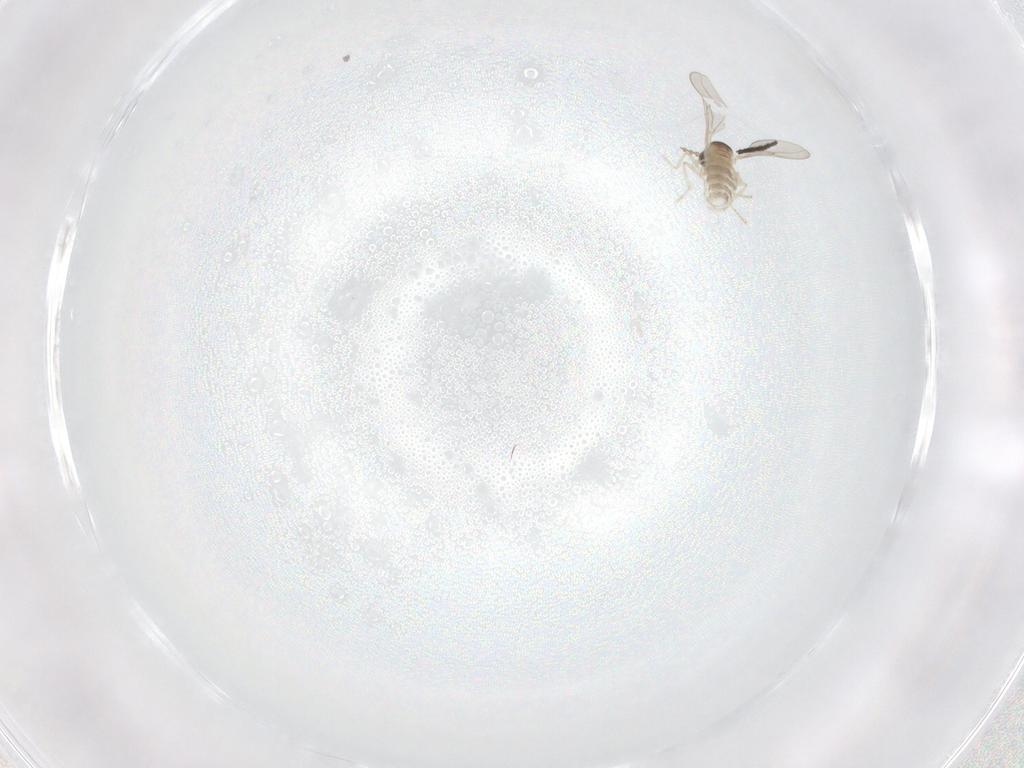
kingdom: Animalia
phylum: Arthropoda
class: Insecta
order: Diptera
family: Cecidomyiidae
